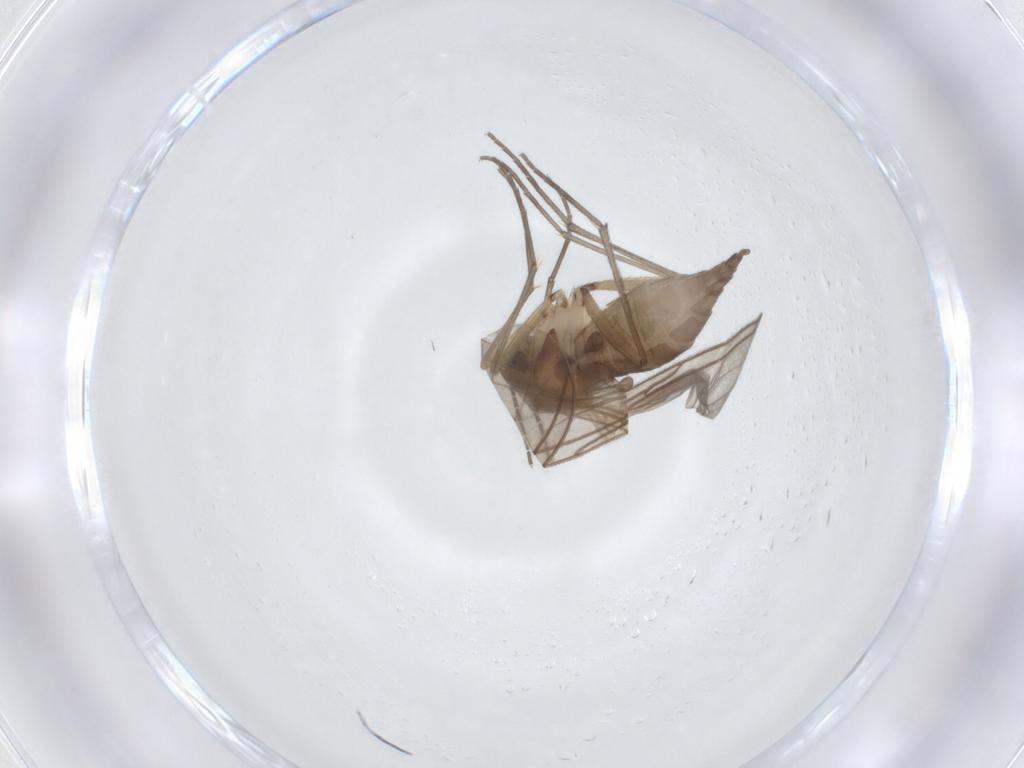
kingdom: Animalia
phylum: Arthropoda
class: Insecta
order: Diptera
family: Sciaridae
